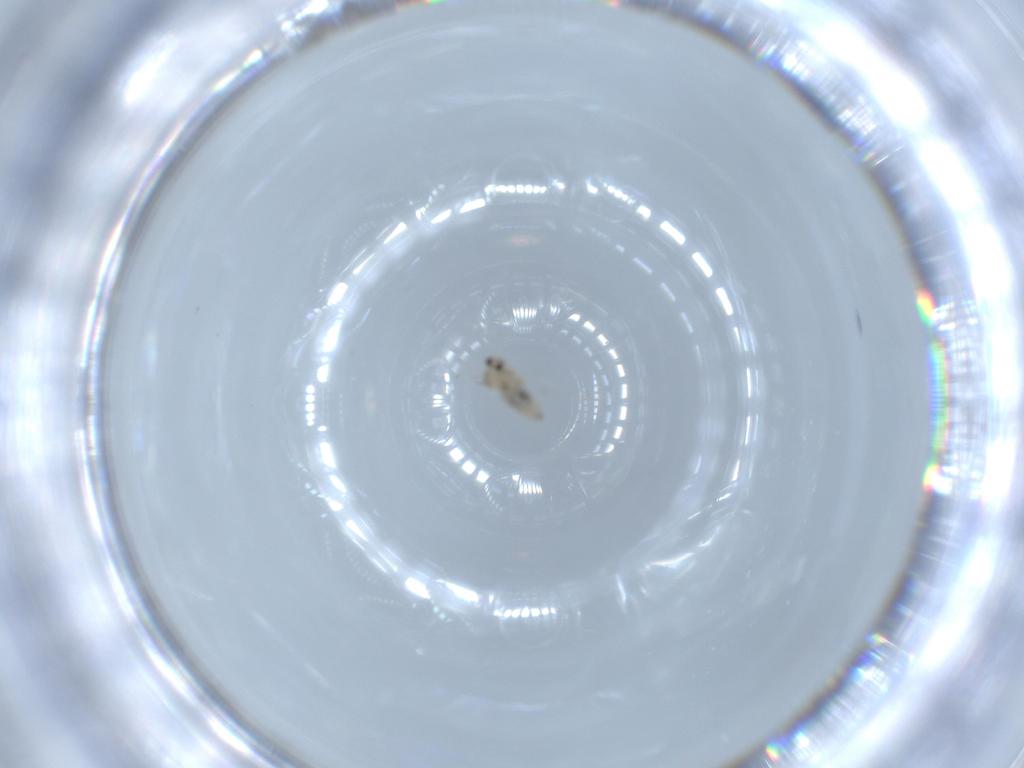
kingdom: Animalia
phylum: Arthropoda
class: Insecta
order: Diptera
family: Cecidomyiidae
